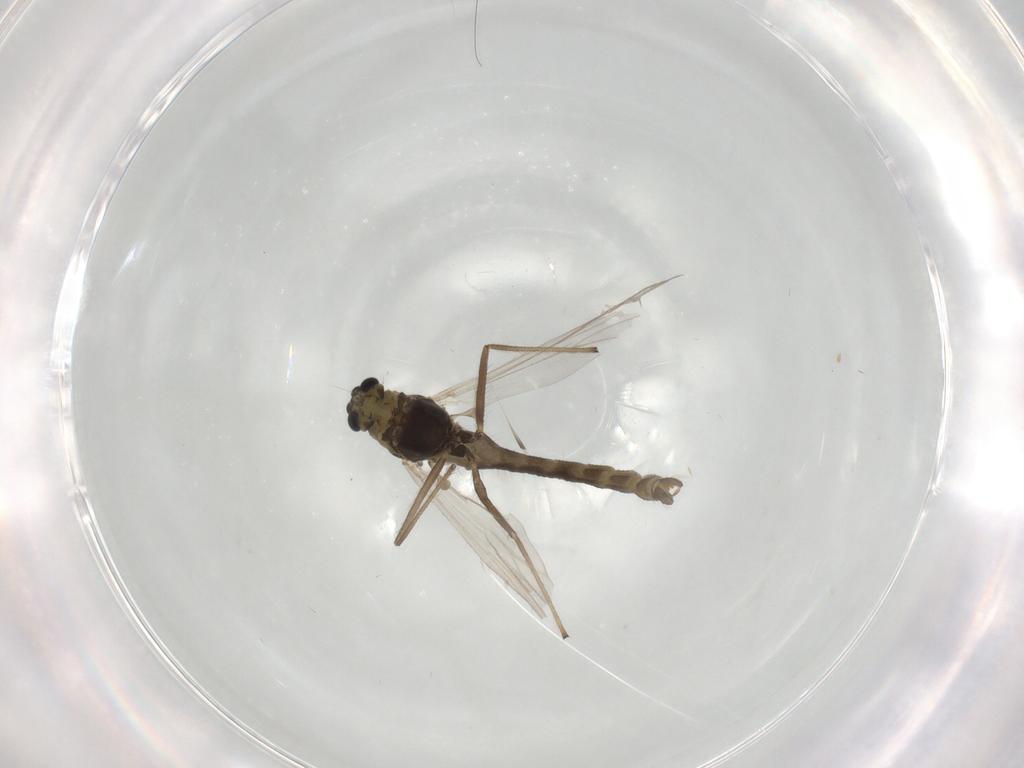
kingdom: Animalia
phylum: Arthropoda
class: Insecta
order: Diptera
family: Chironomidae
